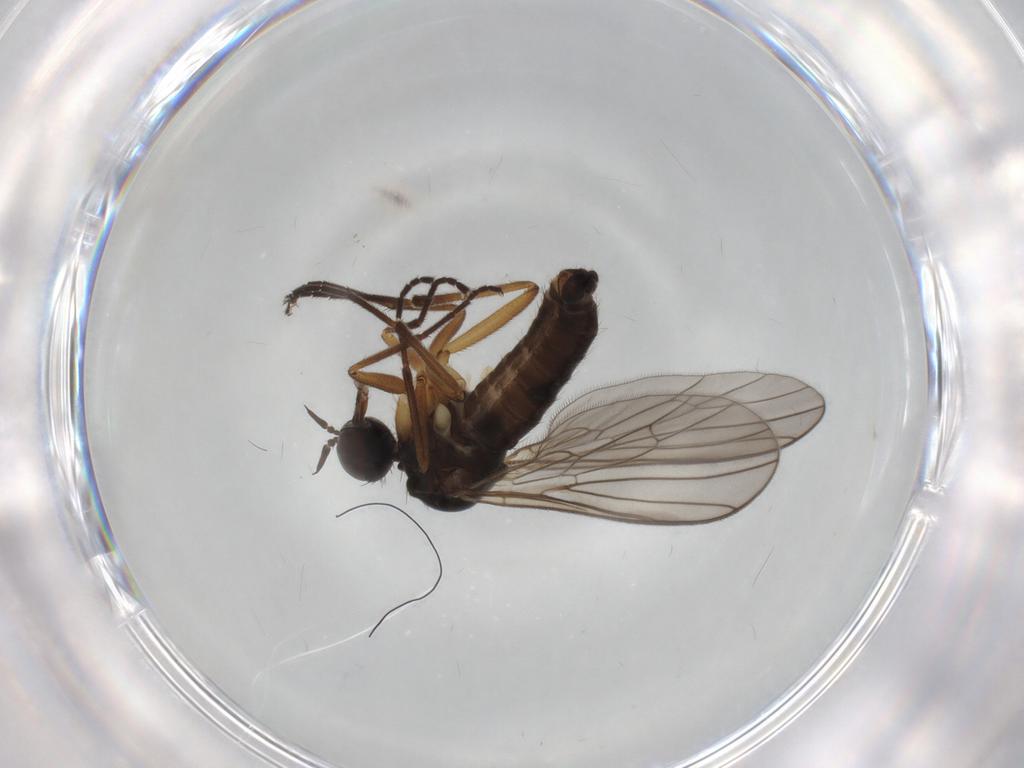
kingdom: Animalia
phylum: Arthropoda
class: Insecta
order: Diptera
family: Empididae
